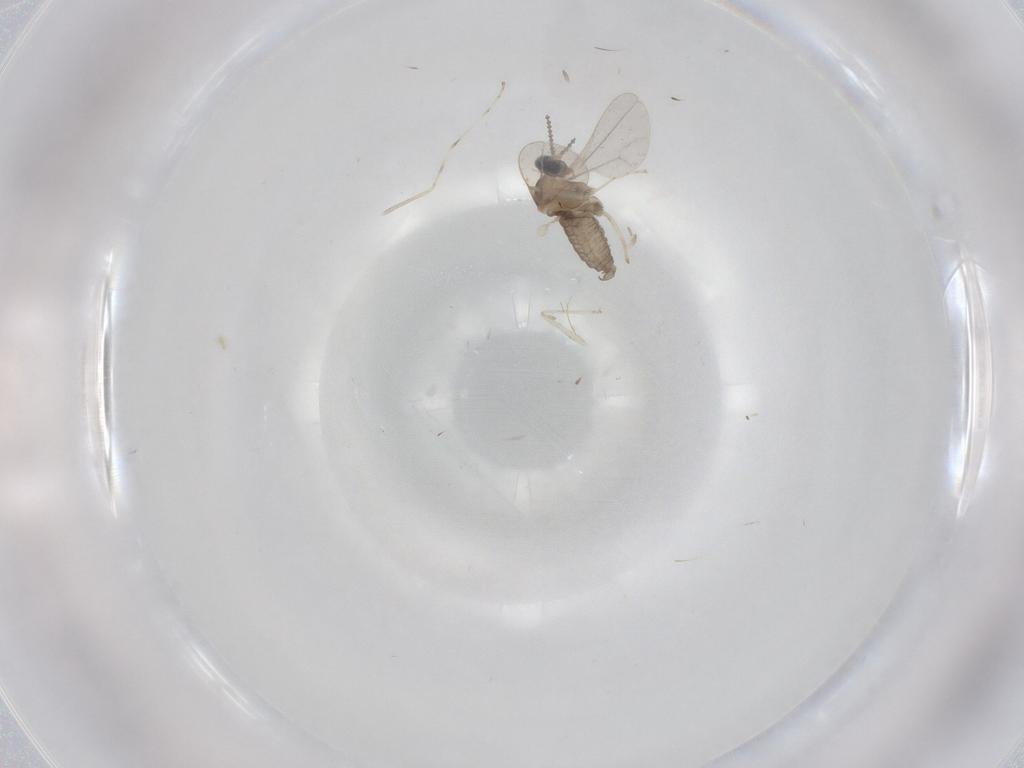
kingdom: Animalia
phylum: Arthropoda
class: Insecta
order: Diptera
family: Cecidomyiidae
